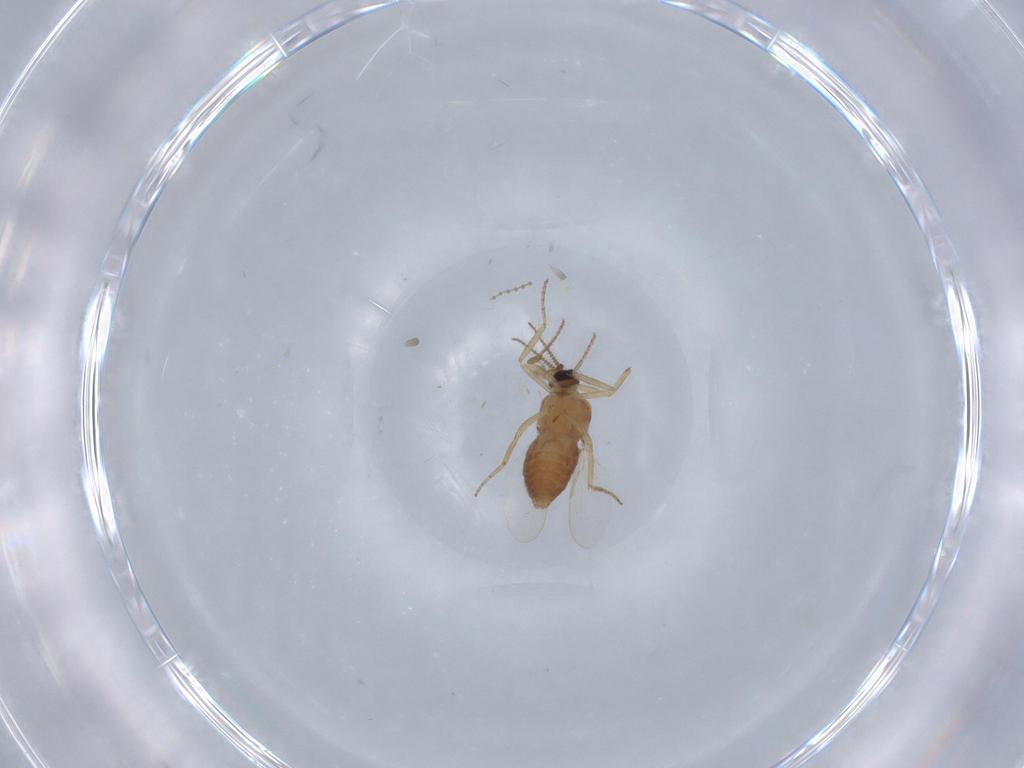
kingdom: Animalia
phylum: Arthropoda
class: Insecta
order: Diptera
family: Ceratopogonidae
